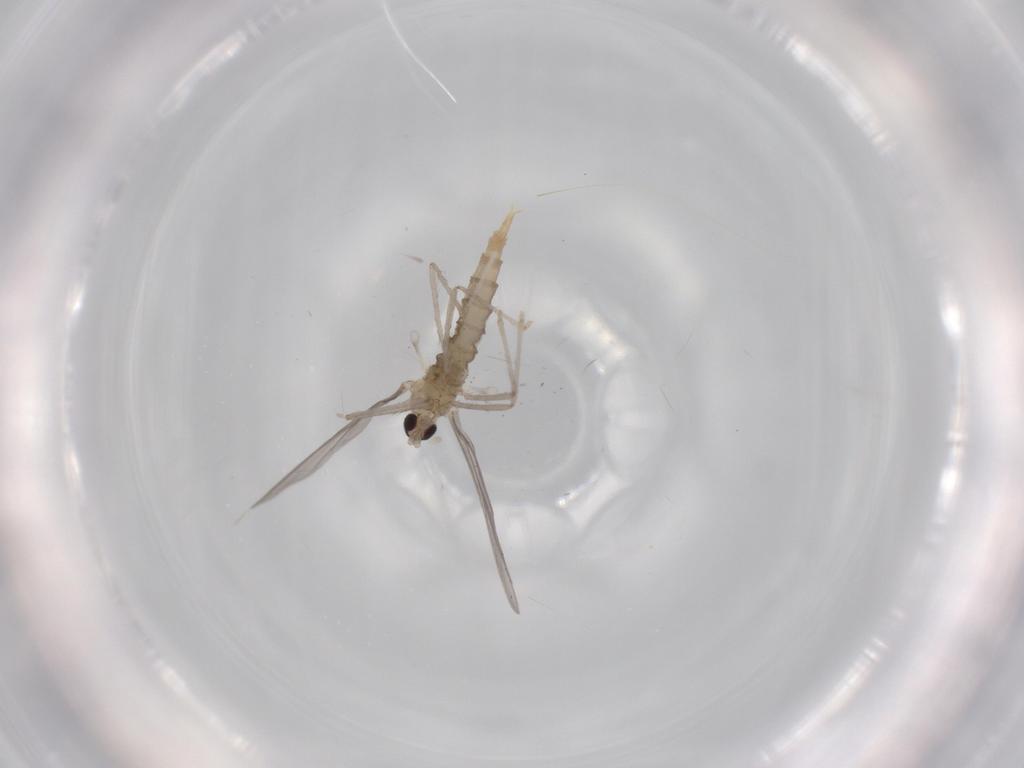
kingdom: Animalia
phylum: Arthropoda
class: Insecta
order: Diptera
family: Cecidomyiidae
